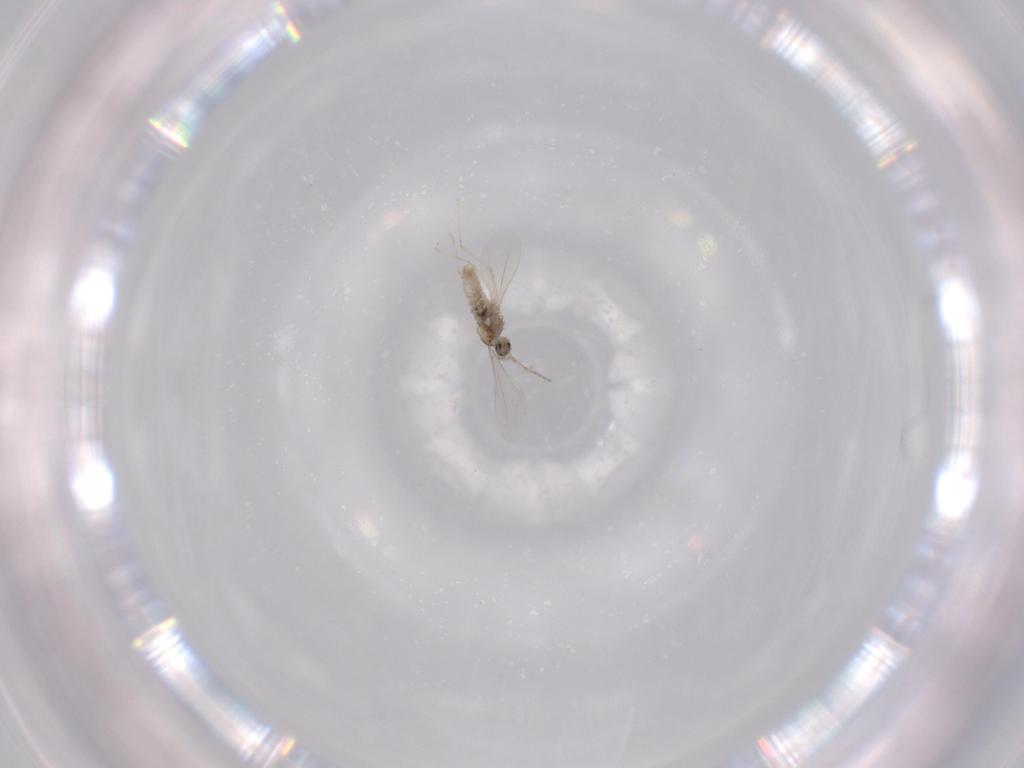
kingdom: Animalia
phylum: Arthropoda
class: Insecta
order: Diptera
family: Cecidomyiidae
